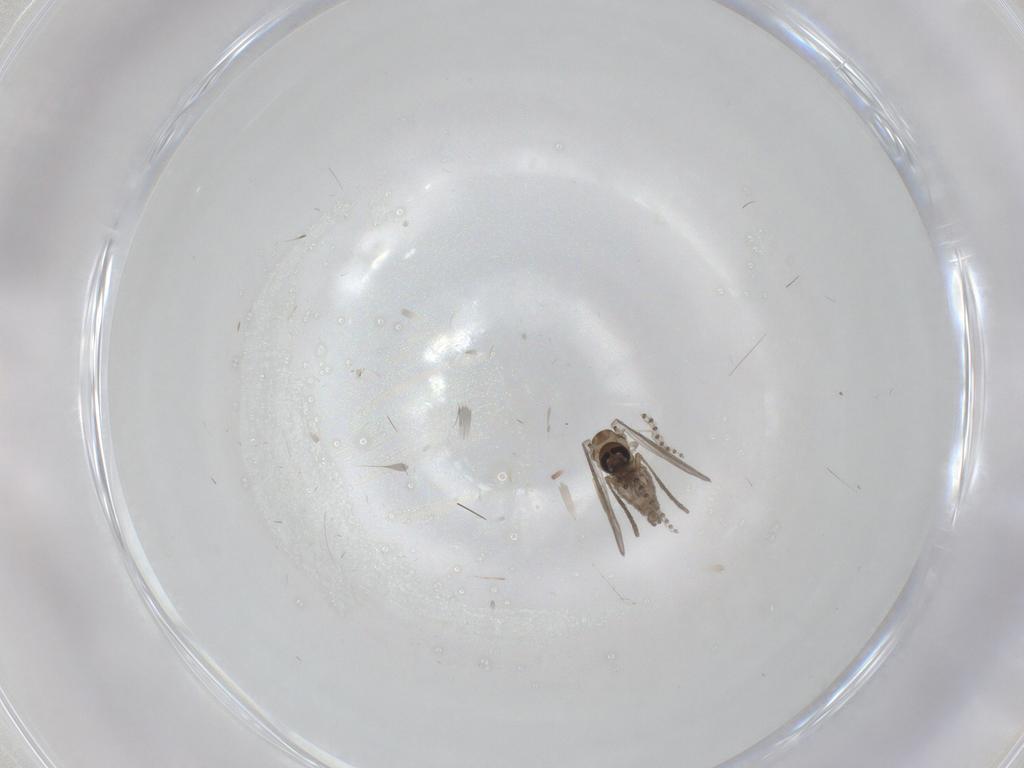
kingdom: Animalia
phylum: Arthropoda
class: Insecta
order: Diptera
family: Psychodidae
